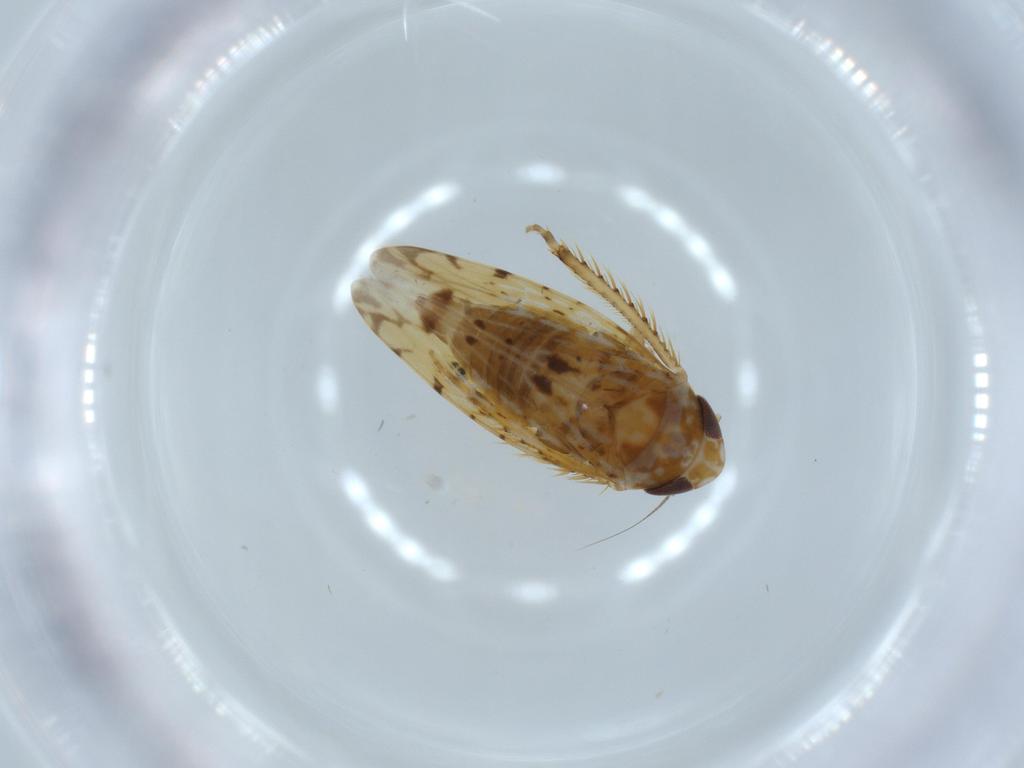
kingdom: Animalia
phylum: Arthropoda
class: Insecta
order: Hemiptera
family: Cicadellidae
